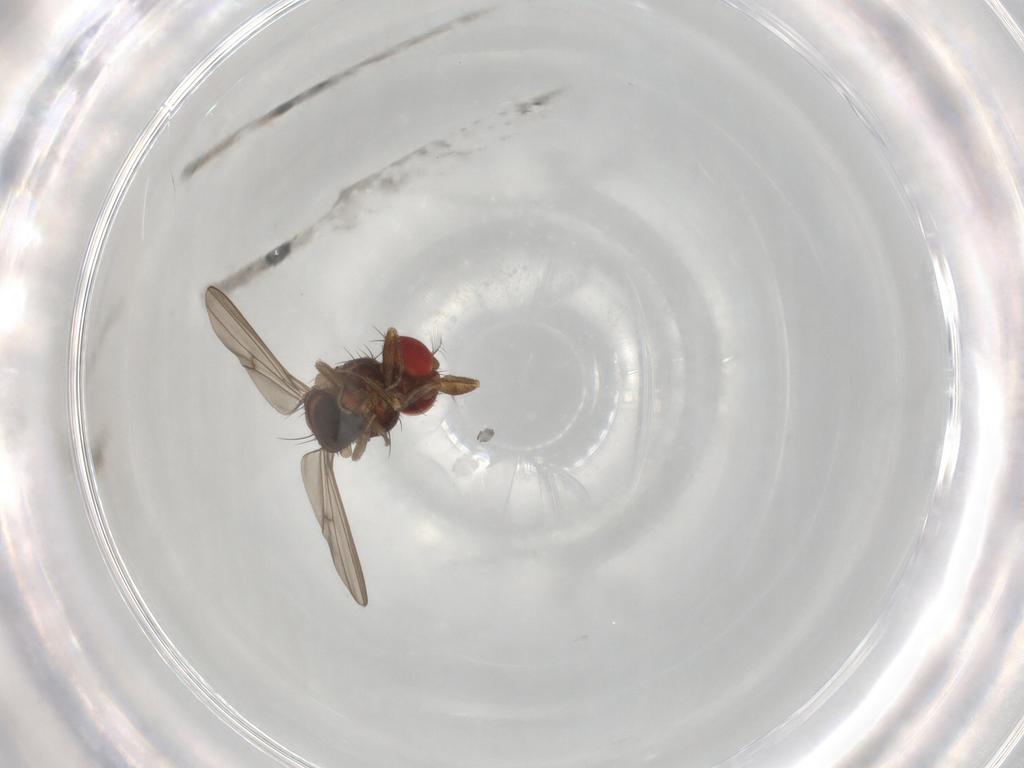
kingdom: Animalia
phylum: Arthropoda
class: Insecta
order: Diptera
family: Drosophilidae
